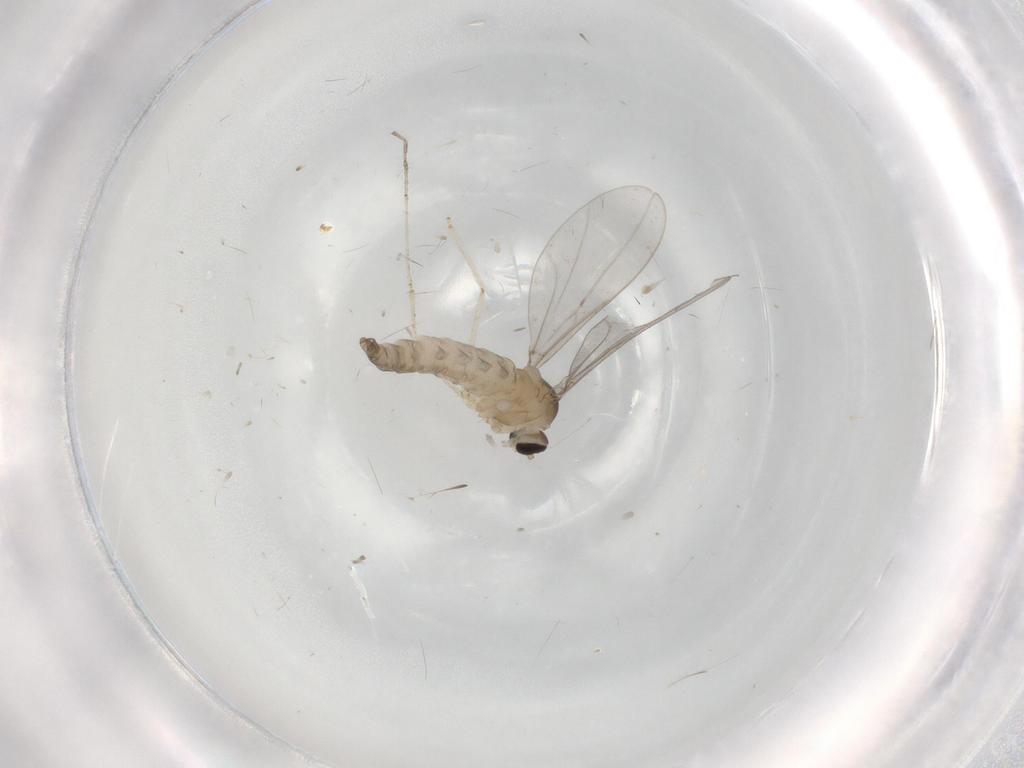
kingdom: Animalia
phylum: Arthropoda
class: Insecta
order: Diptera
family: Cecidomyiidae
